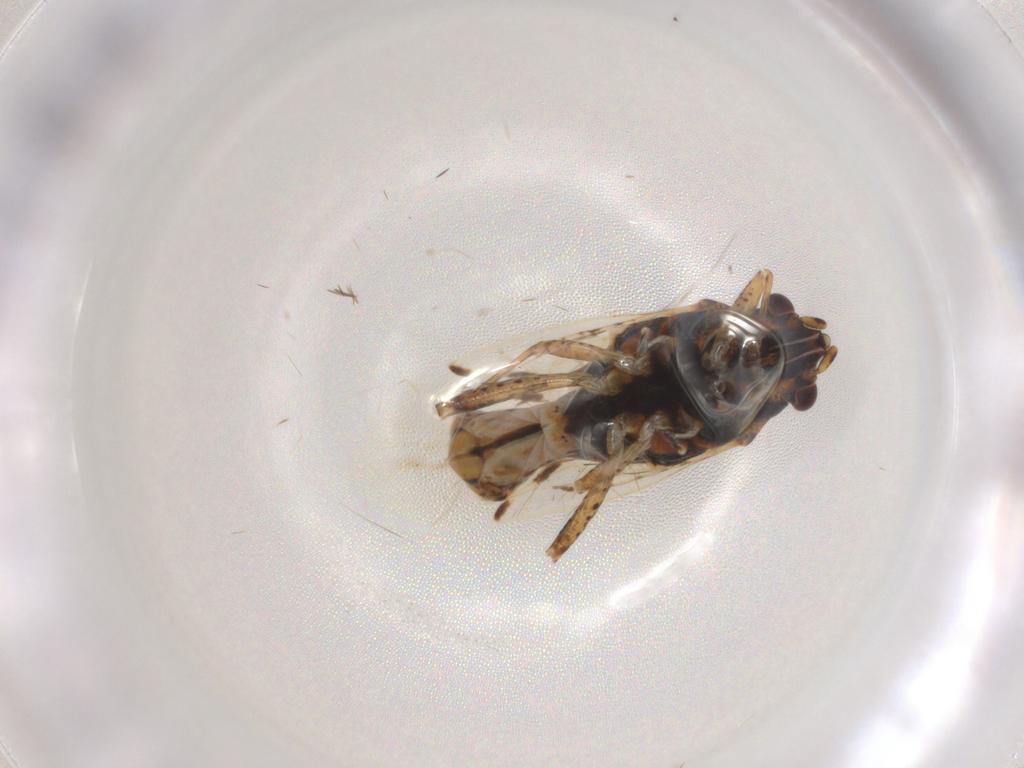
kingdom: Animalia
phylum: Arthropoda
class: Insecta
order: Hemiptera
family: Lygaeidae
